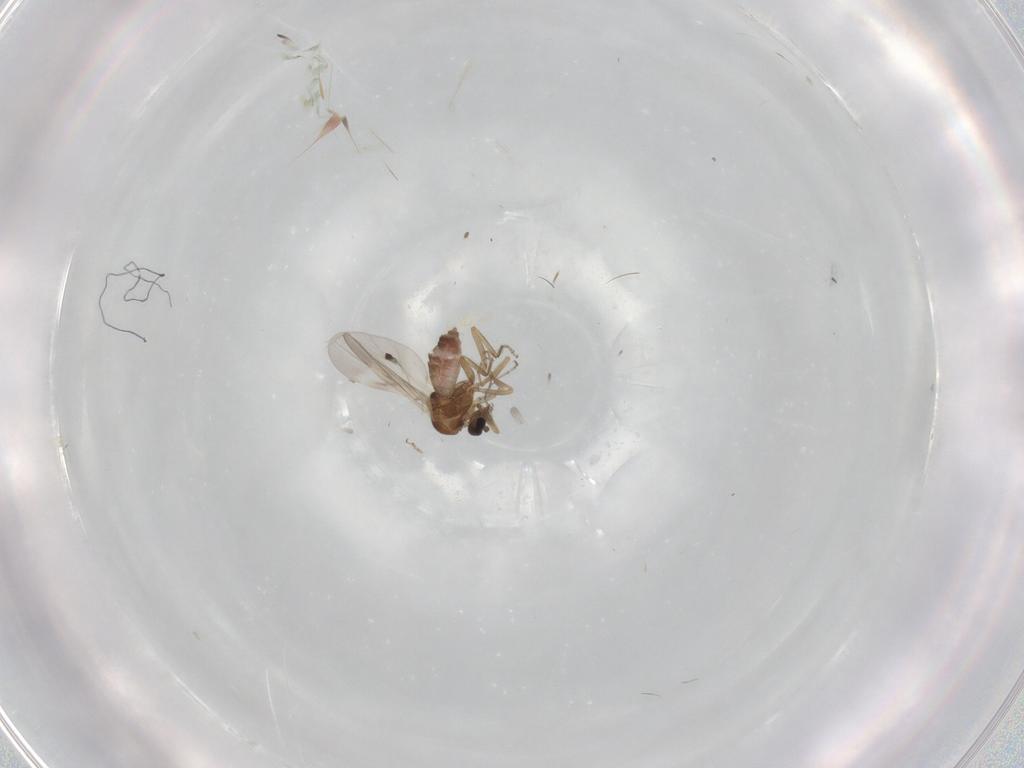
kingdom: Animalia
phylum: Arthropoda
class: Insecta
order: Diptera
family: Ceratopogonidae
